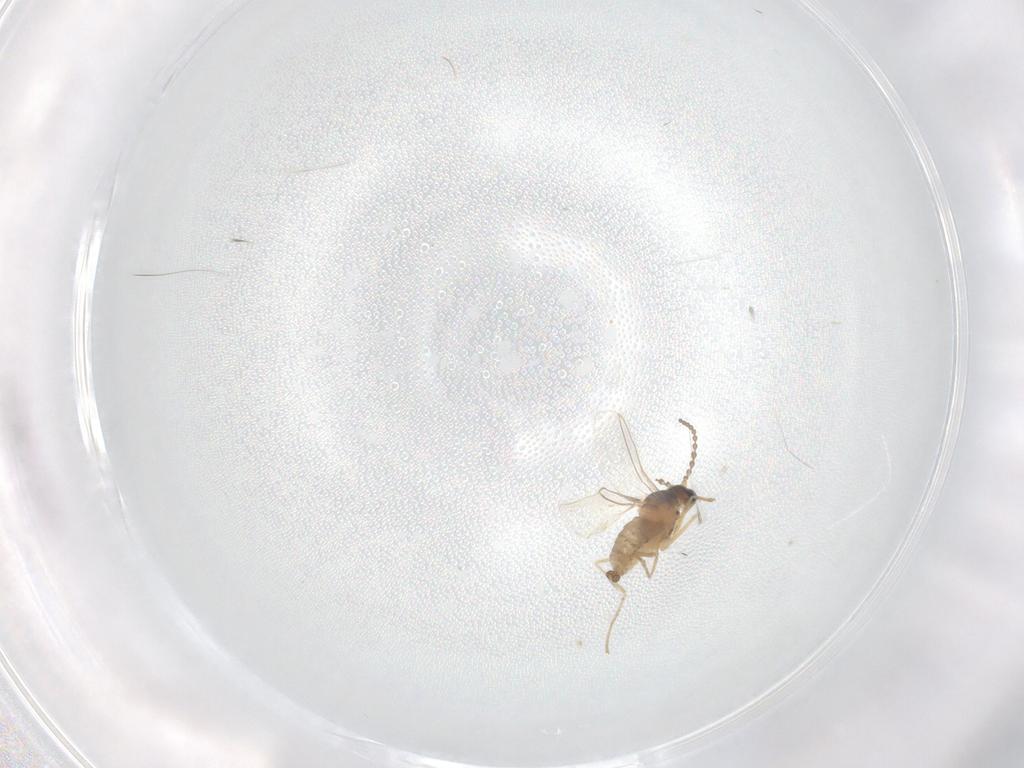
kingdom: Animalia
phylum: Arthropoda
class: Insecta
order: Diptera
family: Cecidomyiidae
